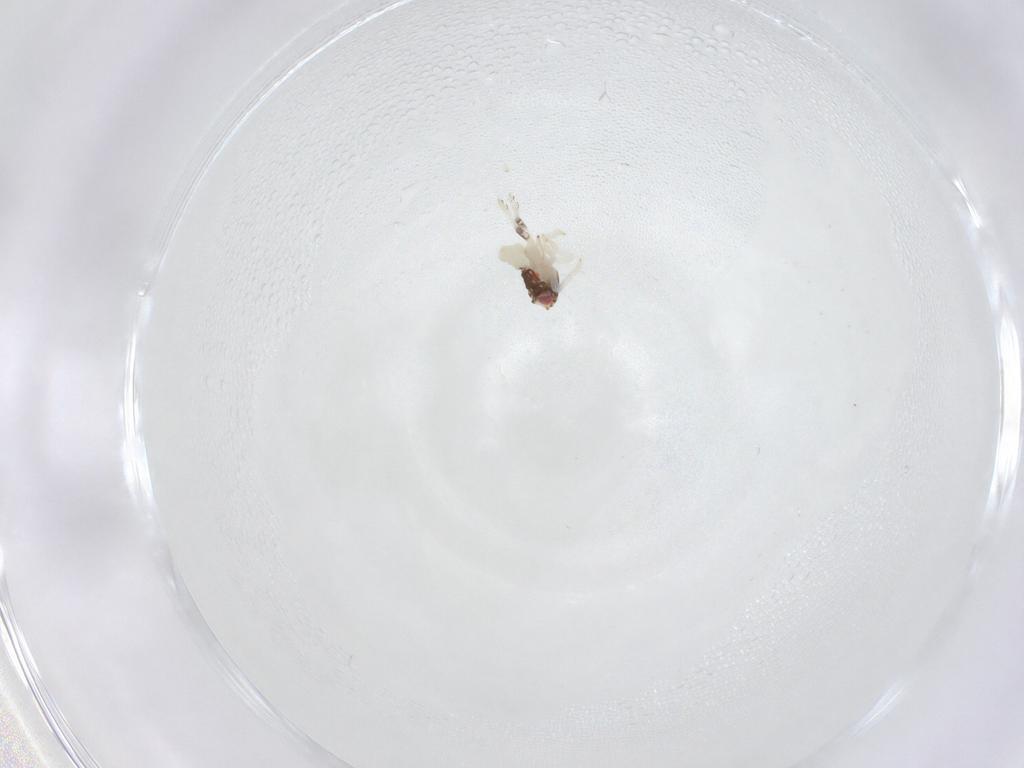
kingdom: Animalia
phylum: Arthropoda
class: Insecta
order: Hemiptera
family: Nogodinidae
